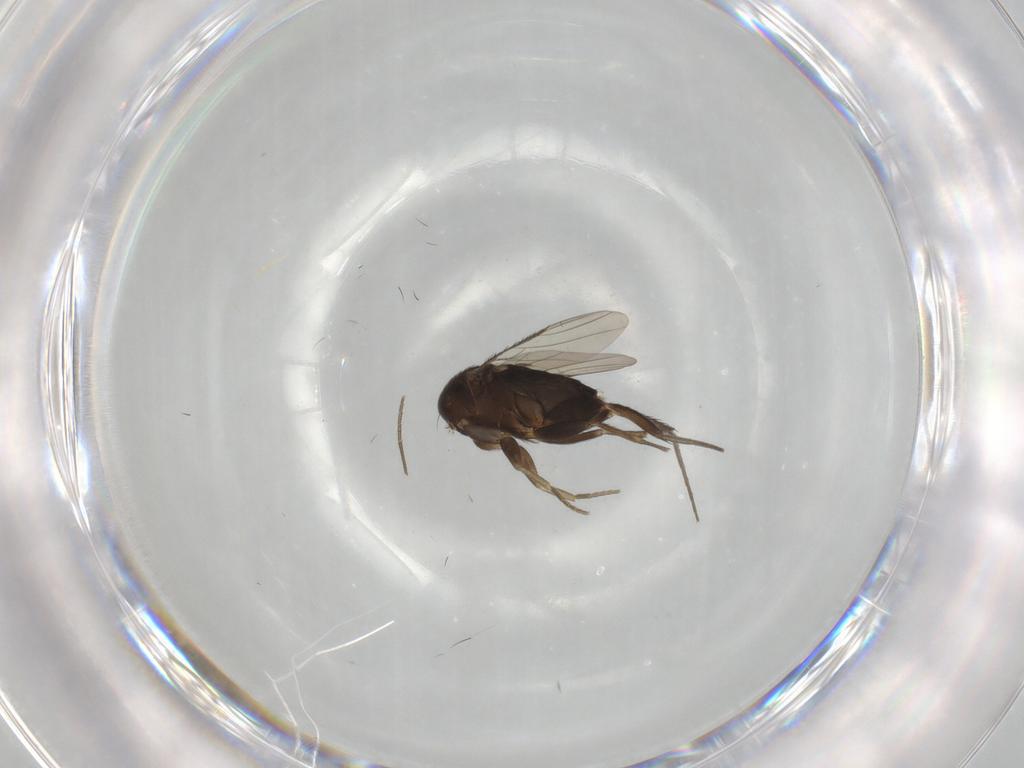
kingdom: Animalia
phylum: Arthropoda
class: Insecta
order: Diptera
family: Phoridae
